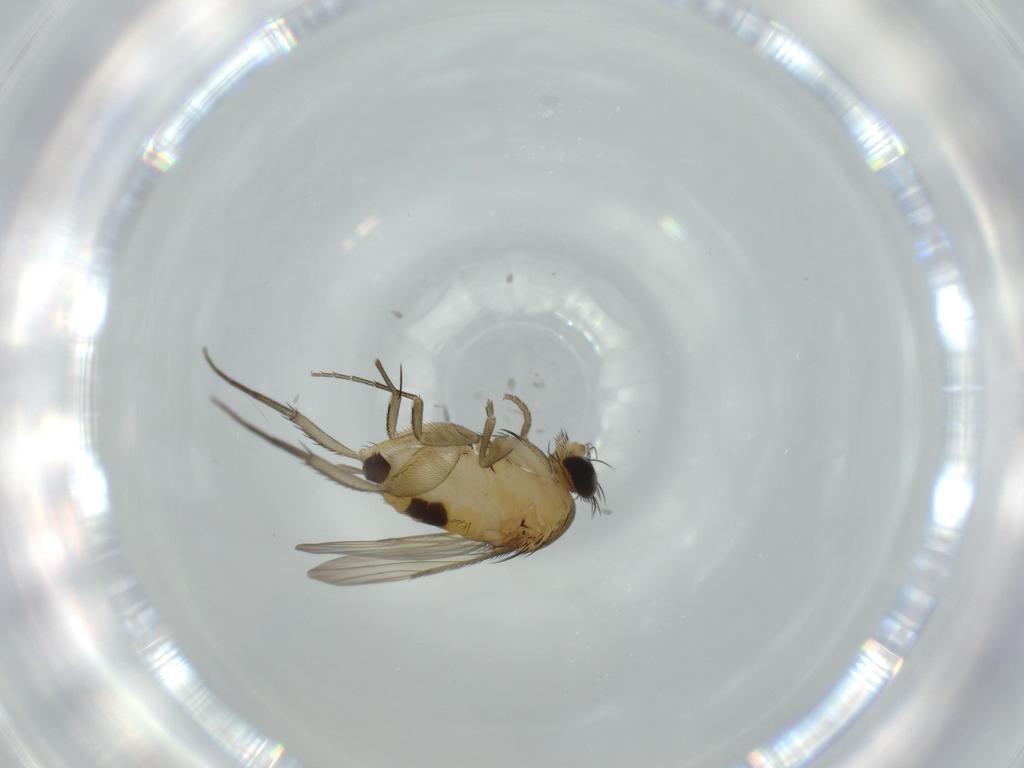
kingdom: Animalia
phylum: Arthropoda
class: Insecta
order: Diptera
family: Phoridae
